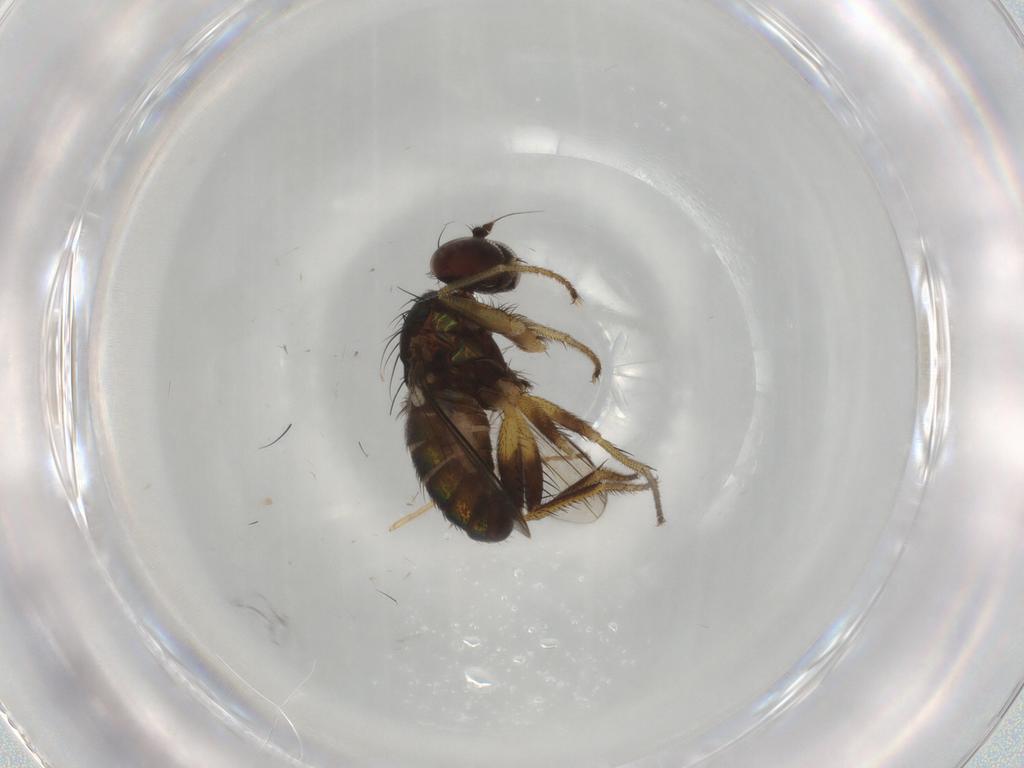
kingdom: Animalia
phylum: Arthropoda
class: Insecta
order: Diptera
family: Dolichopodidae
